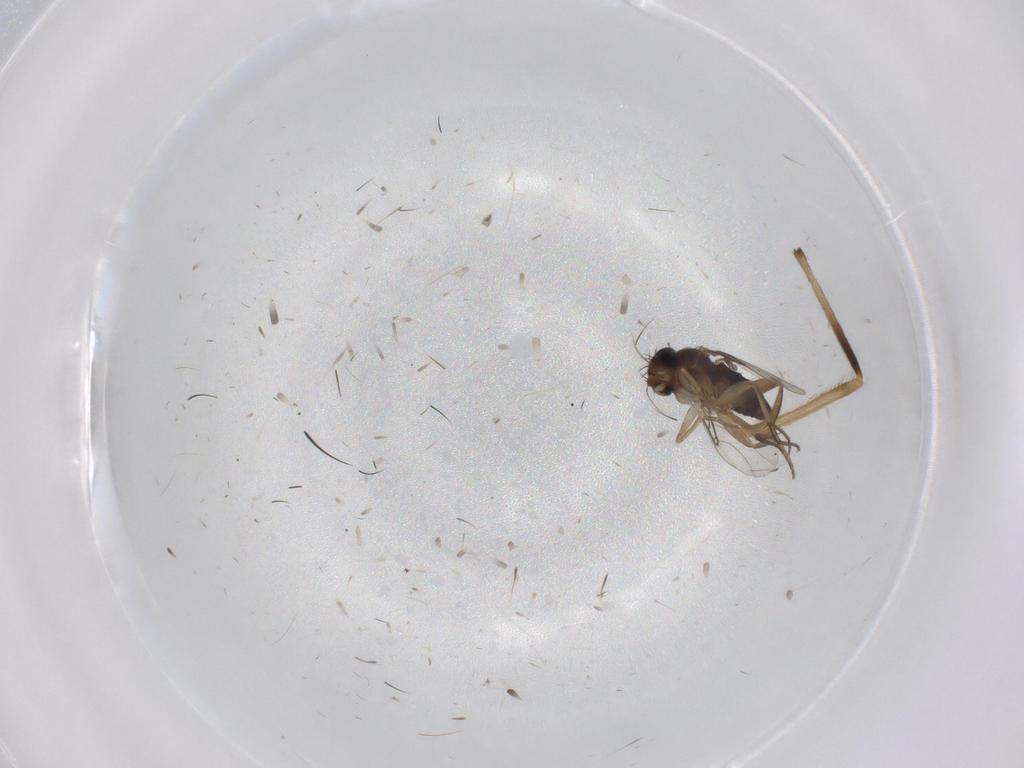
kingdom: Animalia
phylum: Arthropoda
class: Insecta
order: Diptera
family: Phoridae
